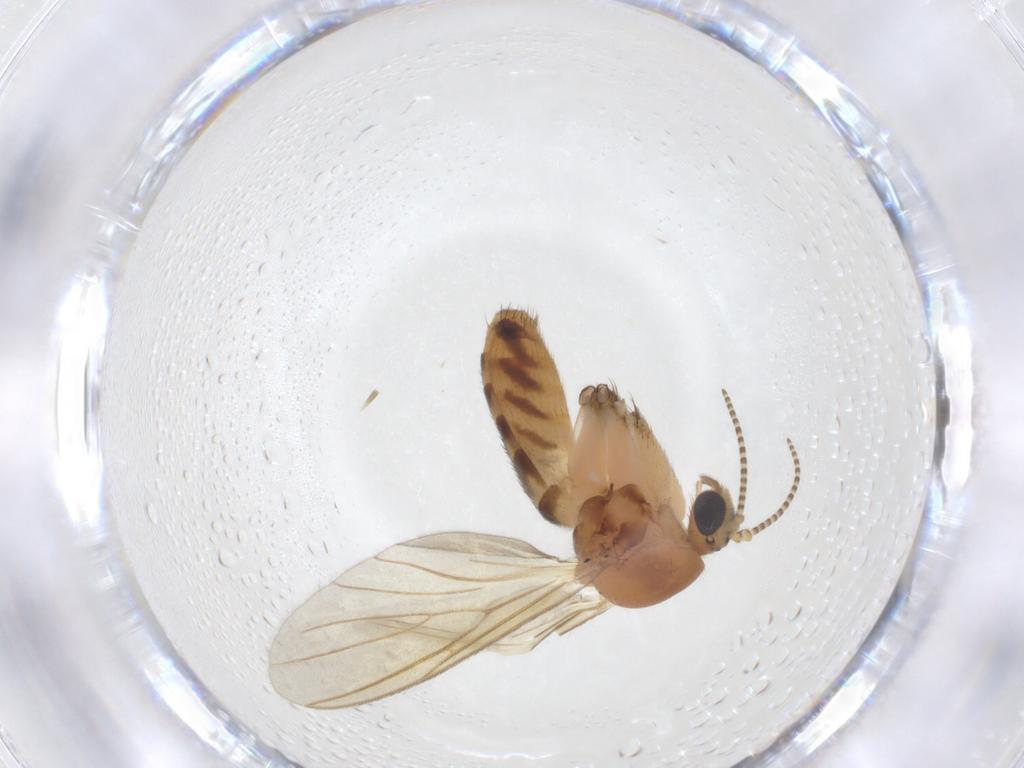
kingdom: Animalia
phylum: Arthropoda
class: Insecta
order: Diptera
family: Mycetophilidae
